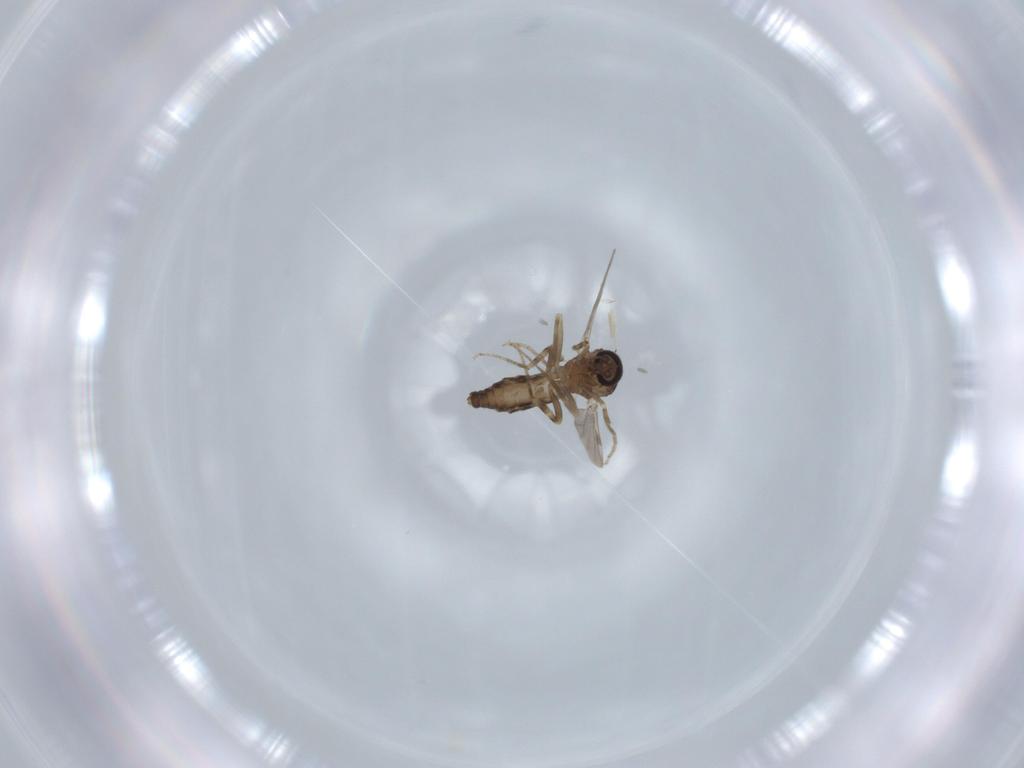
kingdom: Animalia
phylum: Arthropoda
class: Insecta
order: Diptera
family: Ceratopogonidae
